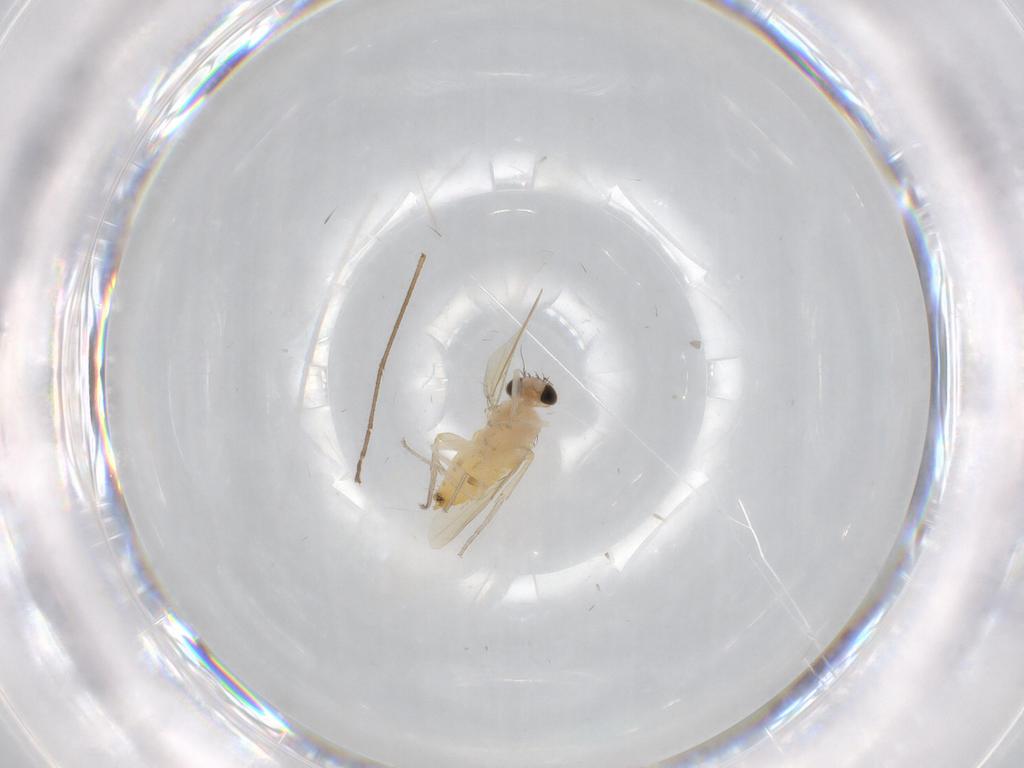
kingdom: Animalia
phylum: Arthropoda
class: Insecta
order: Diptera
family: Phoridae
